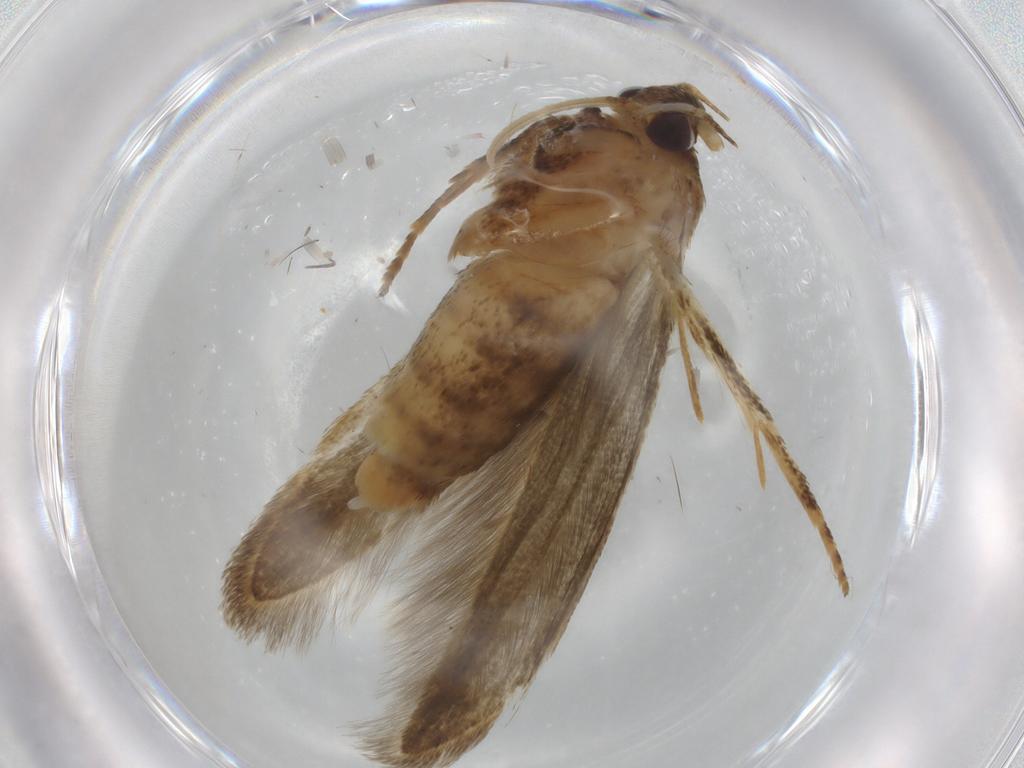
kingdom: Animalia
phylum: Arthropoda
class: Insecta
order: Lepidoptera
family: Blastobasidae
